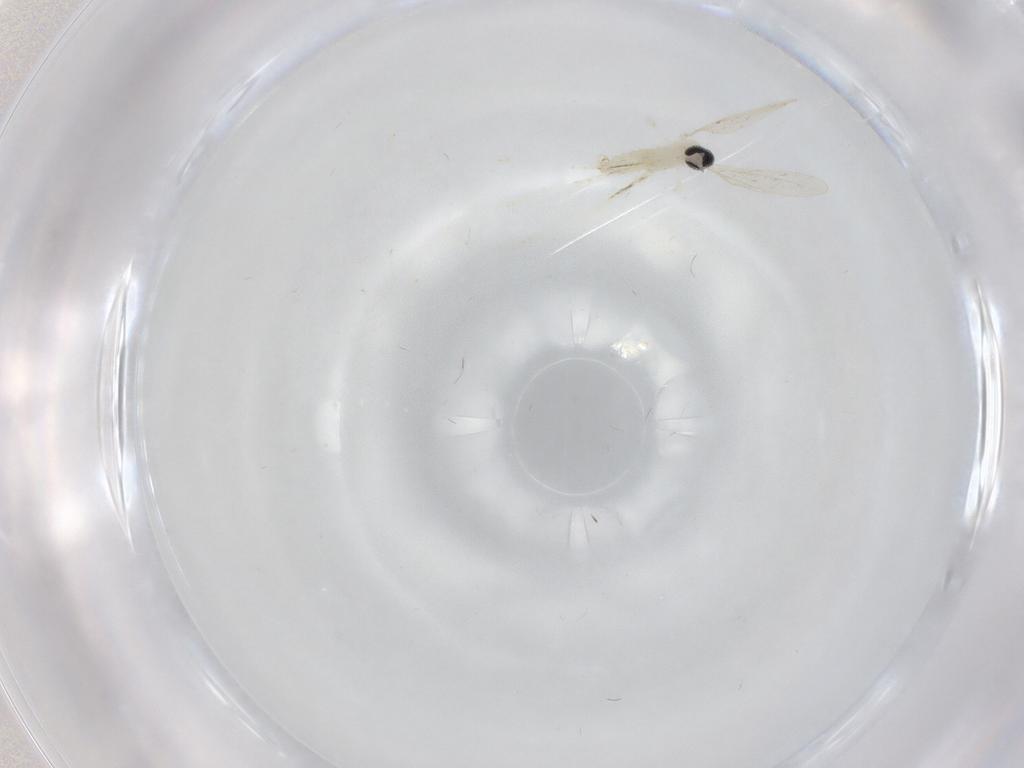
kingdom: Animalia
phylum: Arthropoda
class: Insecta
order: Diptera
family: Cecidomyiidae
